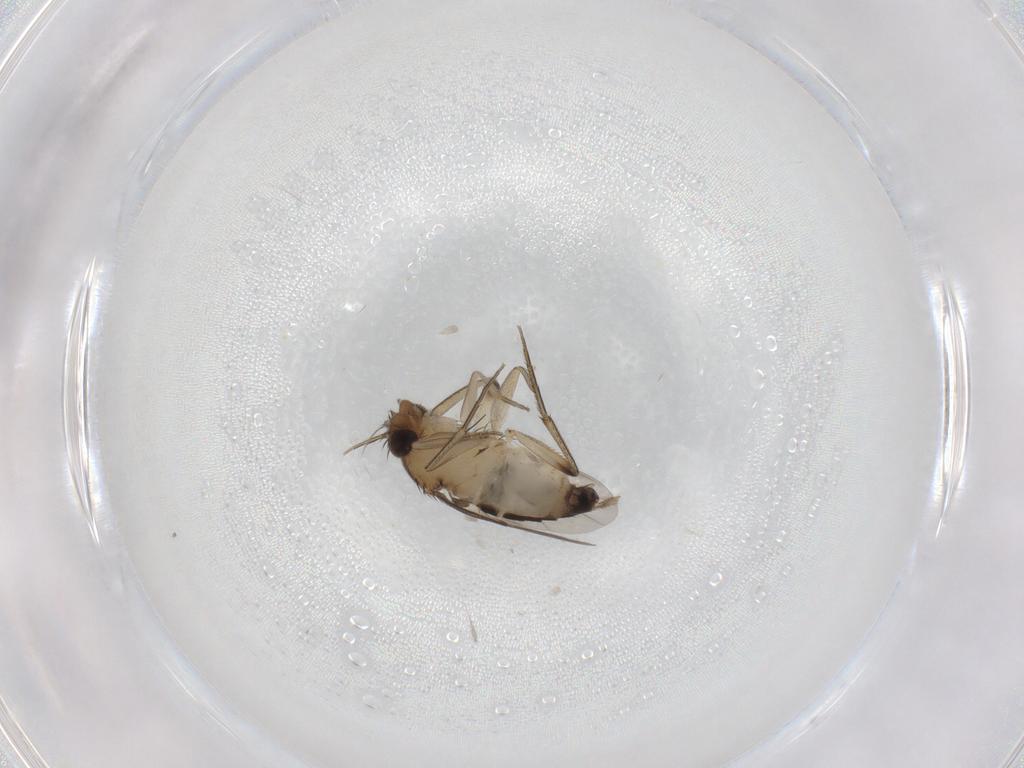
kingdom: Animalia
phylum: Arthropoda
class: Insecta
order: Diptera
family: Phoridae
